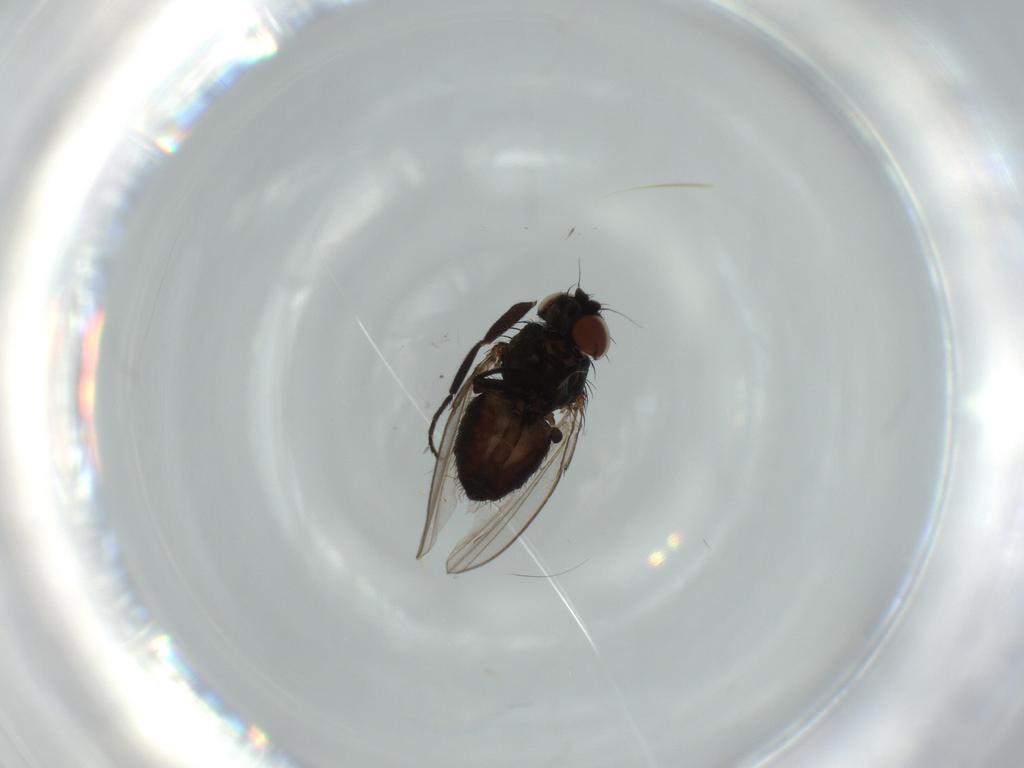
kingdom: Animalia
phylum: Arthropoda
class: Insecta
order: Diptera
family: Milichiidae
